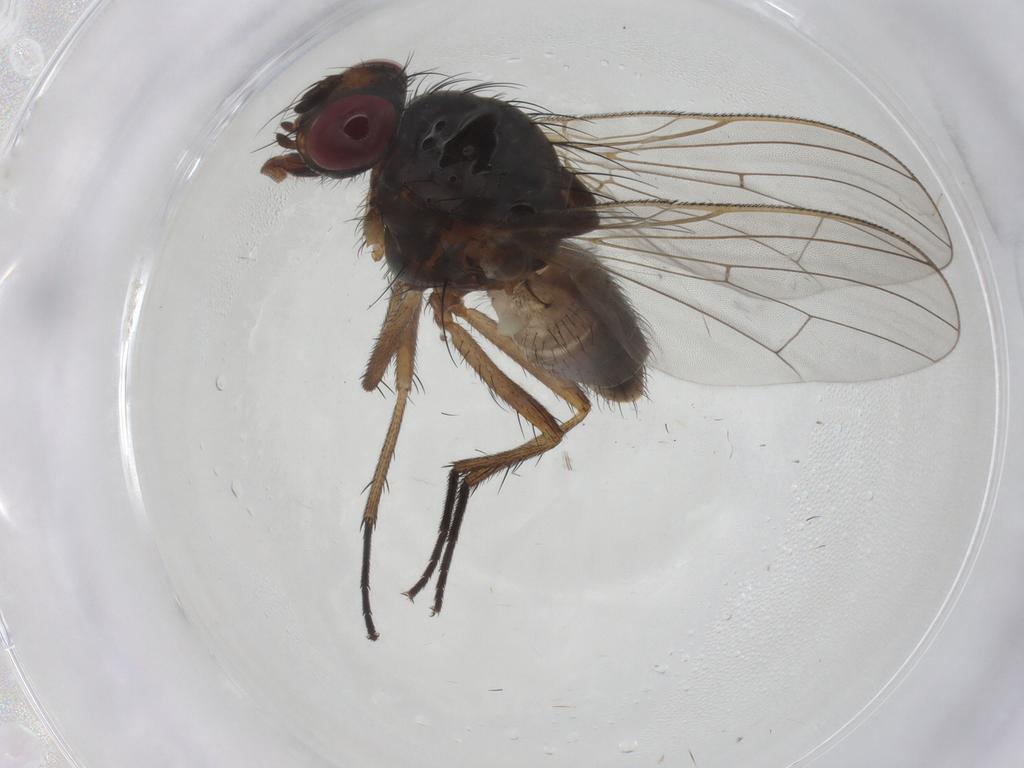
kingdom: Animalia
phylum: Arthropoda
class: Insecta
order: Diptera
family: Anthomyiidae
